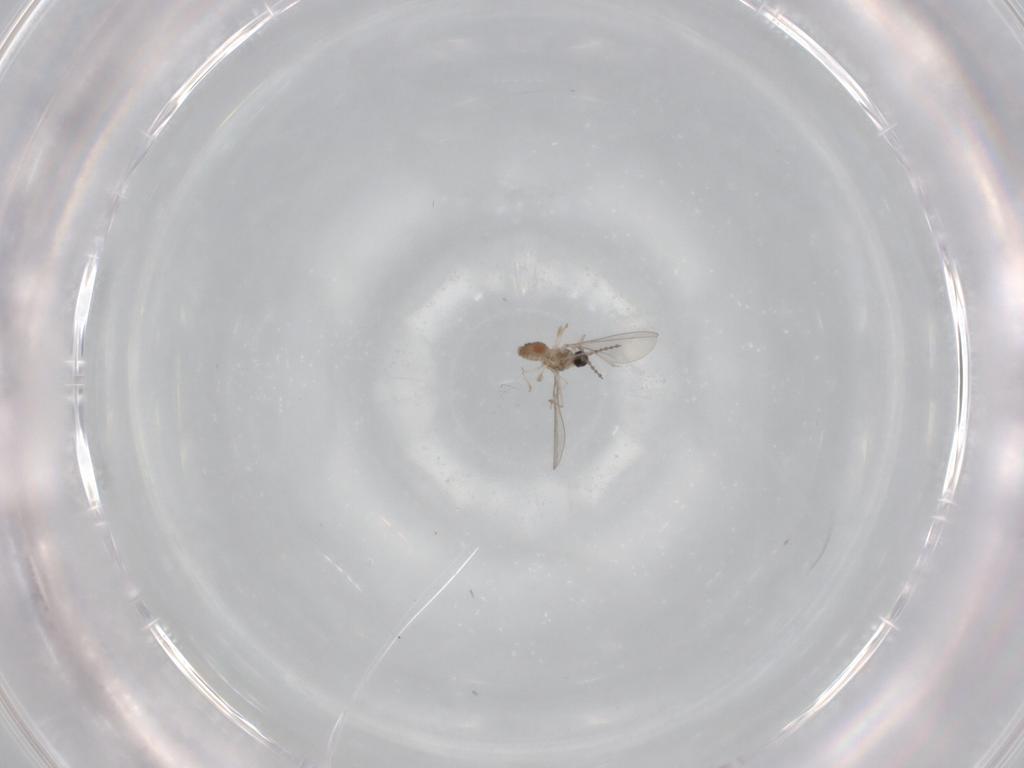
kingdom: Animalia
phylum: Arthropoda
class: Insecta
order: Diptera
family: Cecidomyiidae
